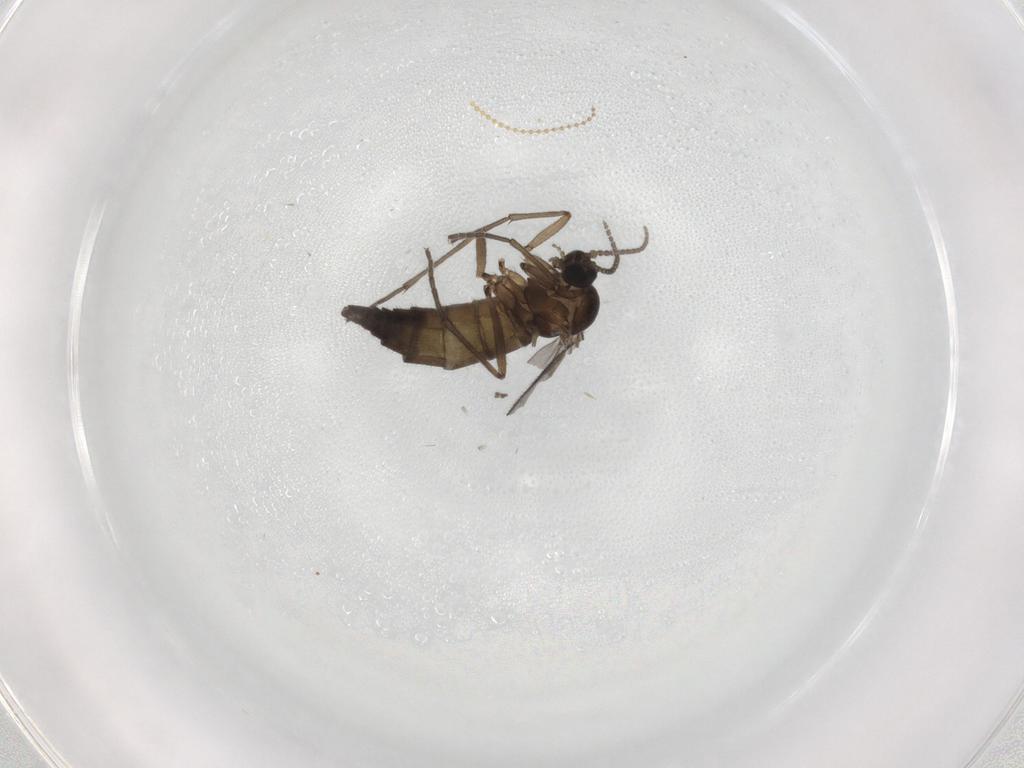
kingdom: Animalia
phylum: Arthropoda
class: Insecta
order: Diptera
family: Sciaridae
